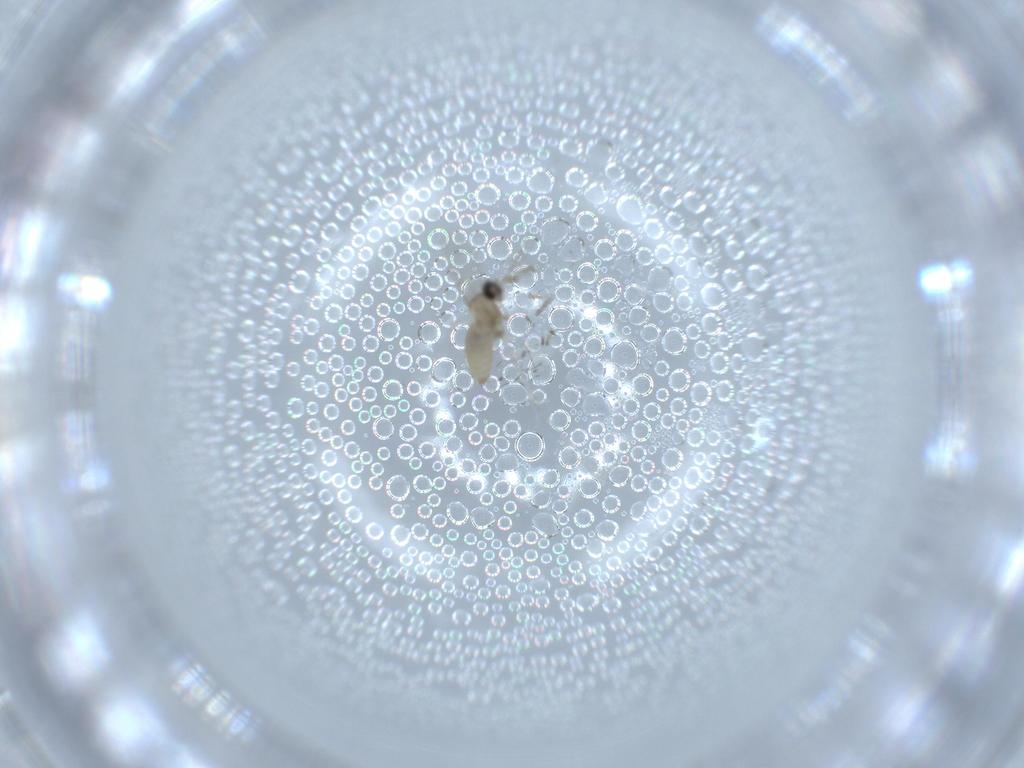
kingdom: Animalia
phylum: Arthropoda
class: Insecta
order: Diptera
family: Cecidomyiidae
